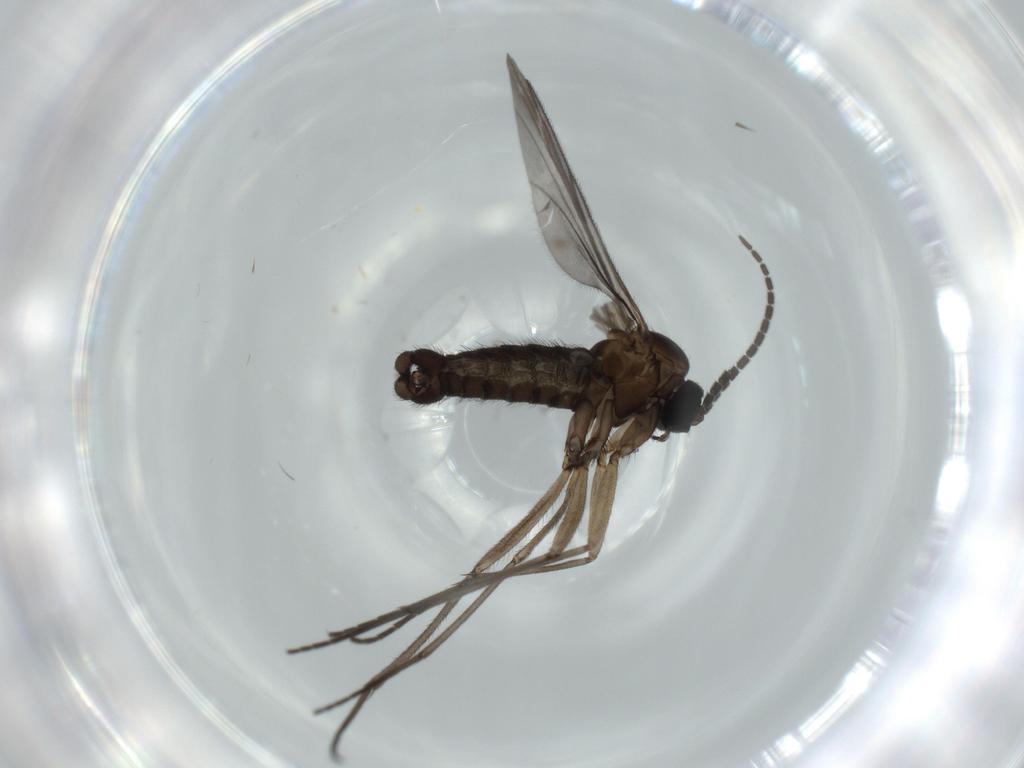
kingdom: Animalia
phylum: Arthropoda
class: Insecta
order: Diptera
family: Sciaridae
